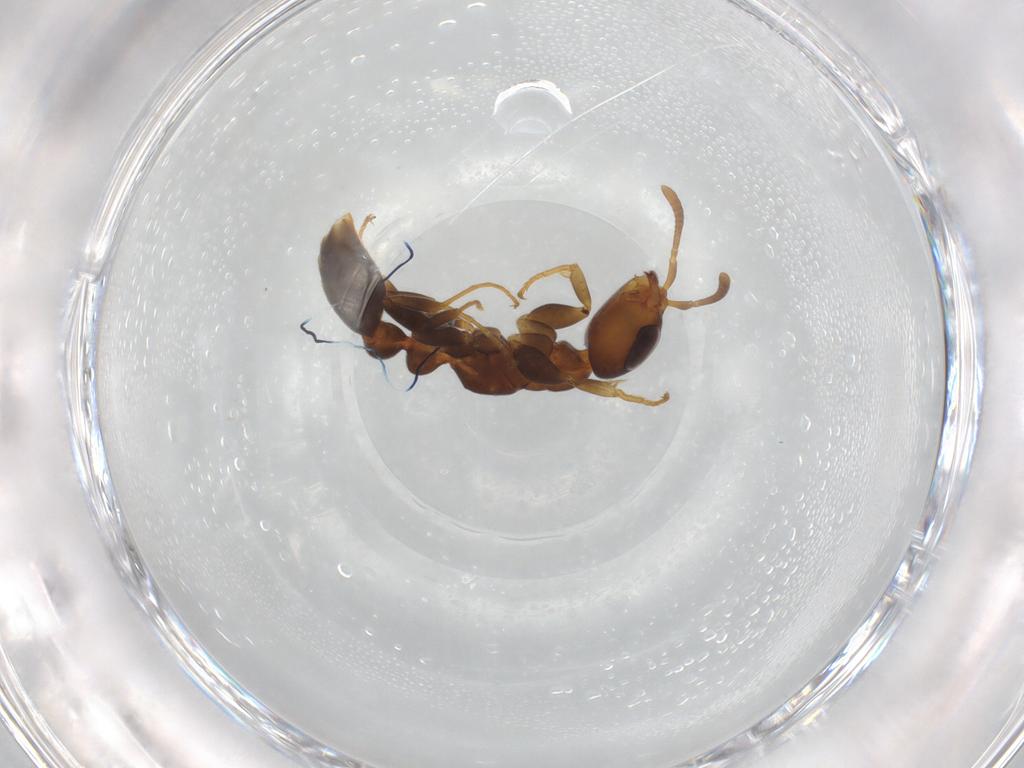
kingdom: Animalia
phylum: Arthropoda
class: Insecta
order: Hymenoptera
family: Formicidae
